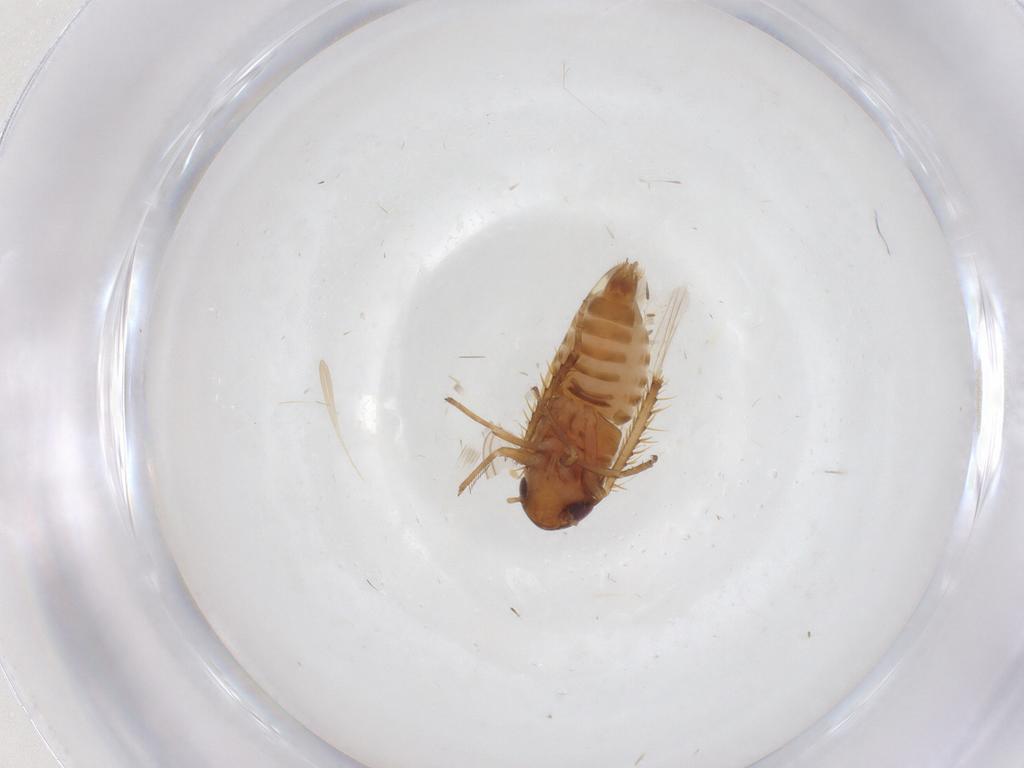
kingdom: Animalia
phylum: Arthropoda
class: Insecta
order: Hemiptera
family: Cicadellidae
